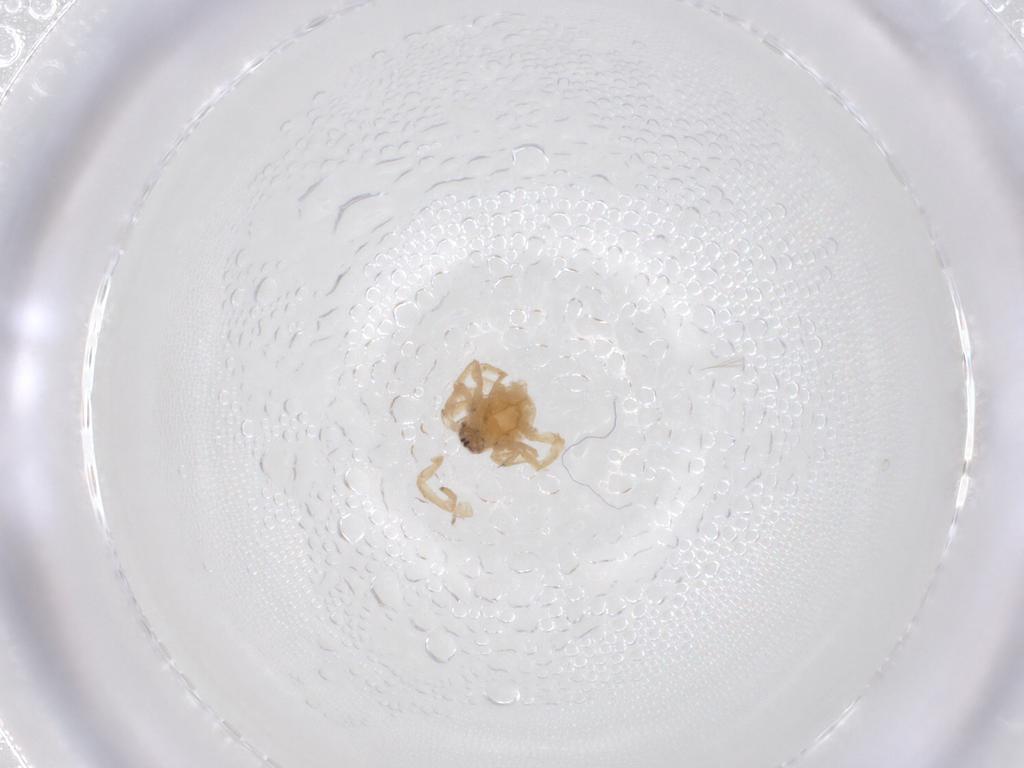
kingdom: Animalia
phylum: Arthropoda
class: Arachnida
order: Araneae
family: Clubionidae
